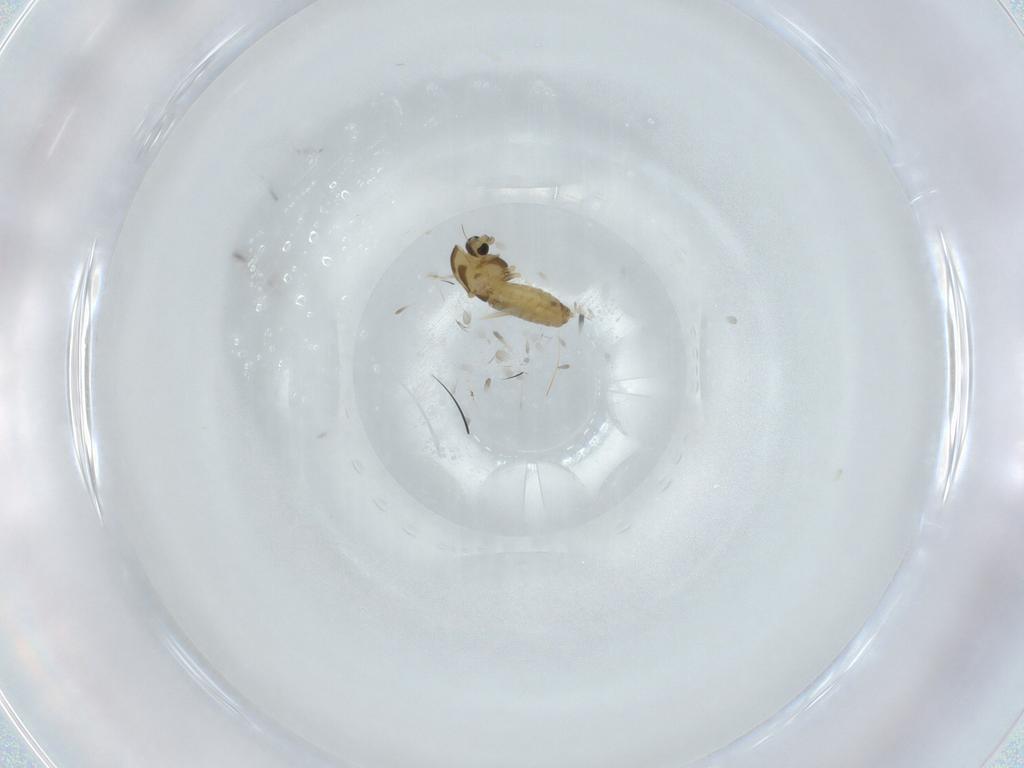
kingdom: Animalia
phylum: Arthropoda
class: Insecta
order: Diptera
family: Chironomidae
